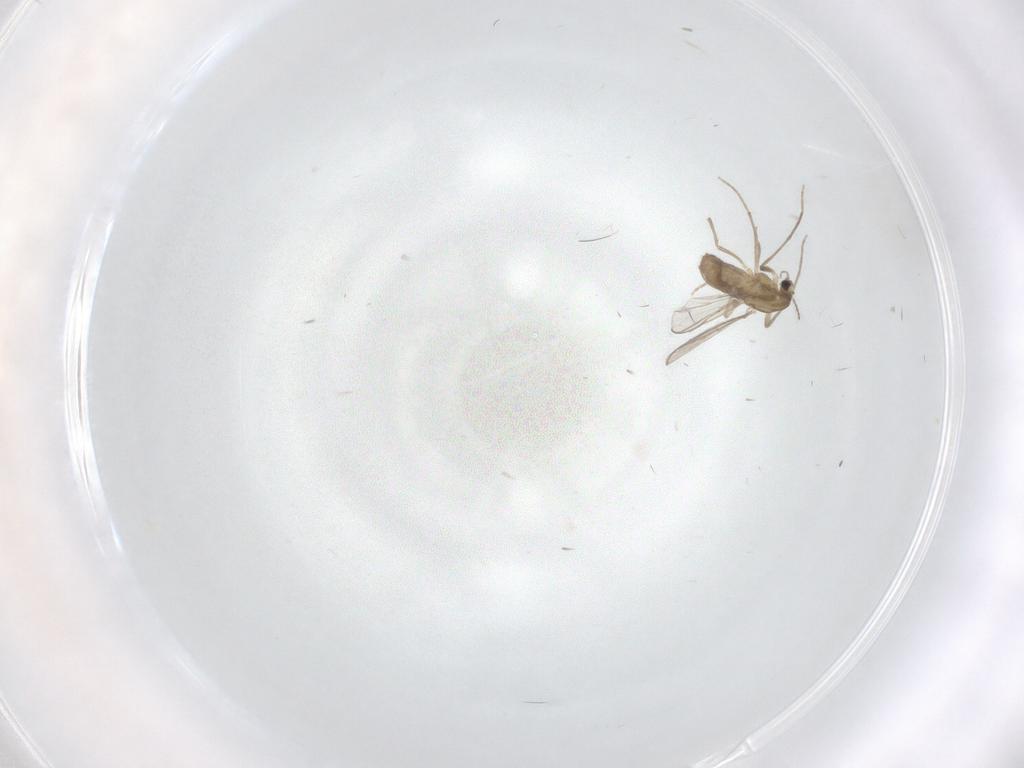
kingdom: Animalia
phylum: Arthropoda
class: Insecta
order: Diptera
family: Chironomidae
